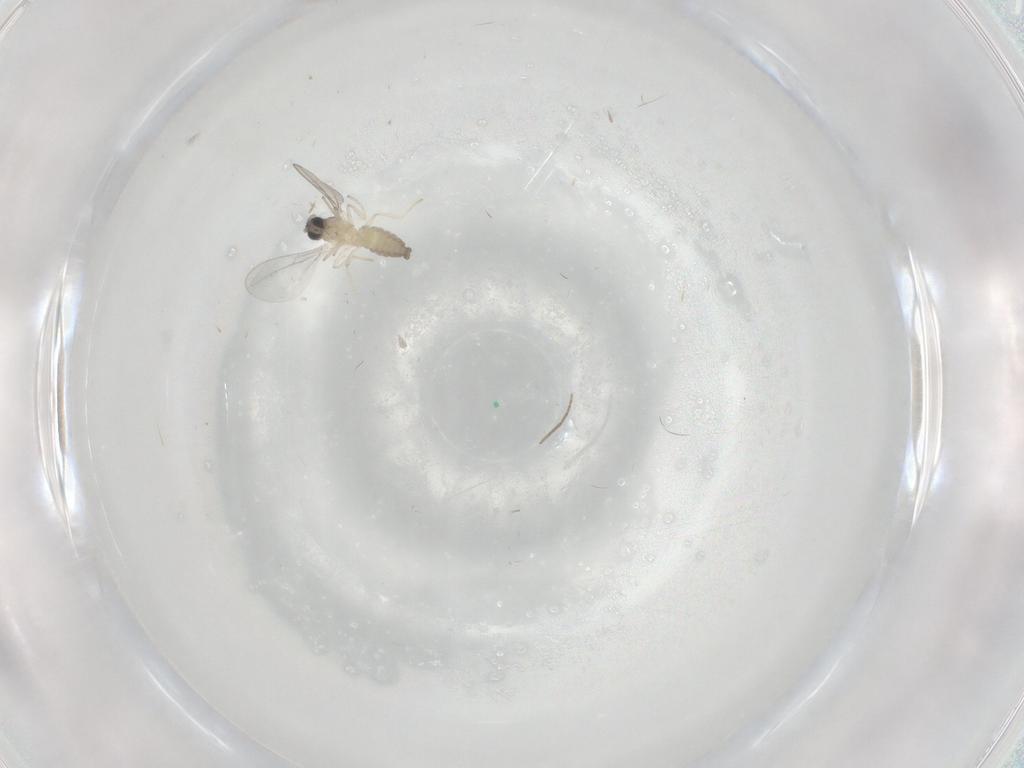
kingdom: Animalia
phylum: Arthropoda
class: Insecta
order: Diptera
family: Cecidomyiidae
